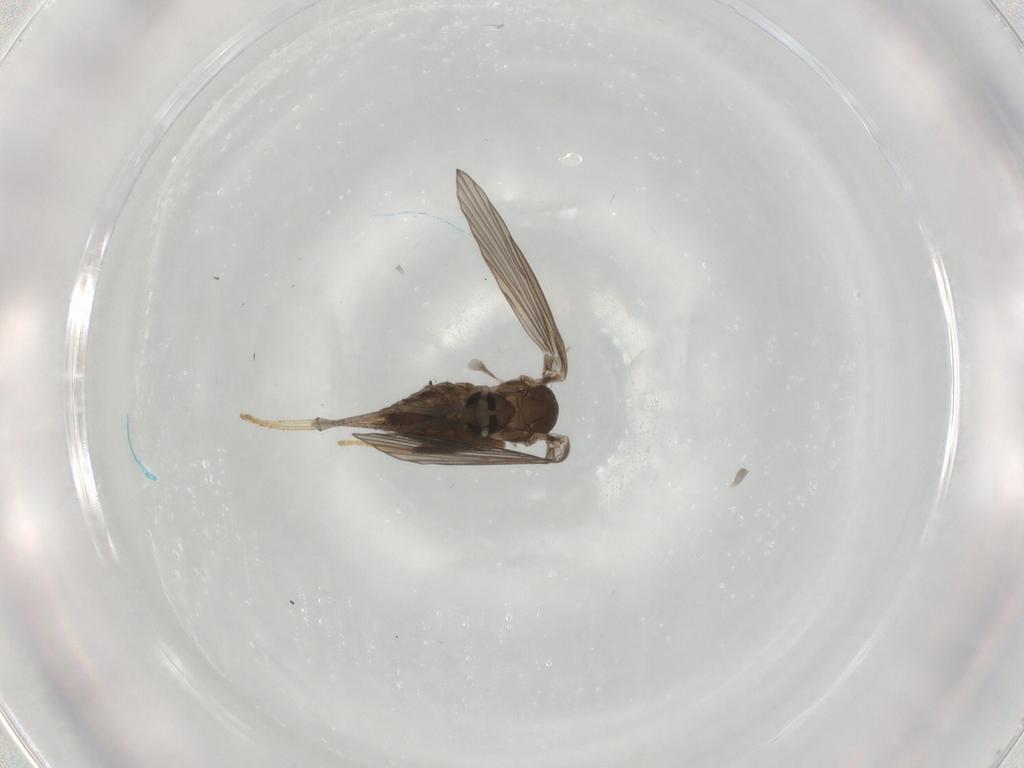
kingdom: Animalia
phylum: Arthropoda
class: Insecta
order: Diptera
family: Psychodidae
